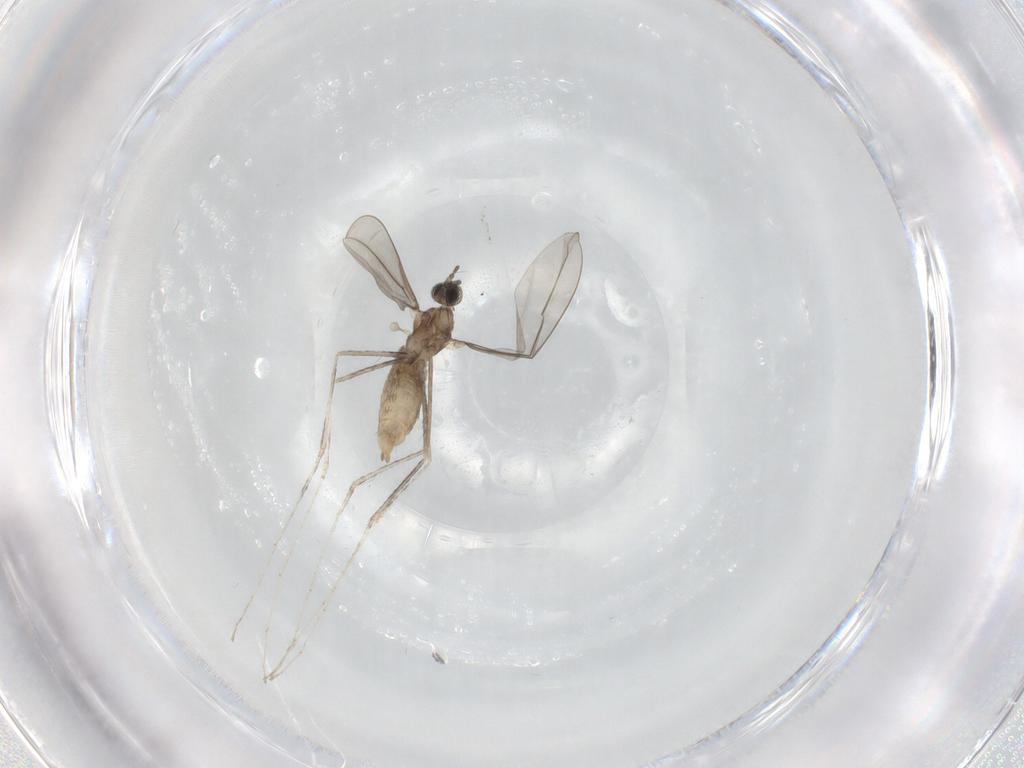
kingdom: Animalia
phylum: Arthropoda
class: Insecta
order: Diptera
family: Cecidomyiidae
